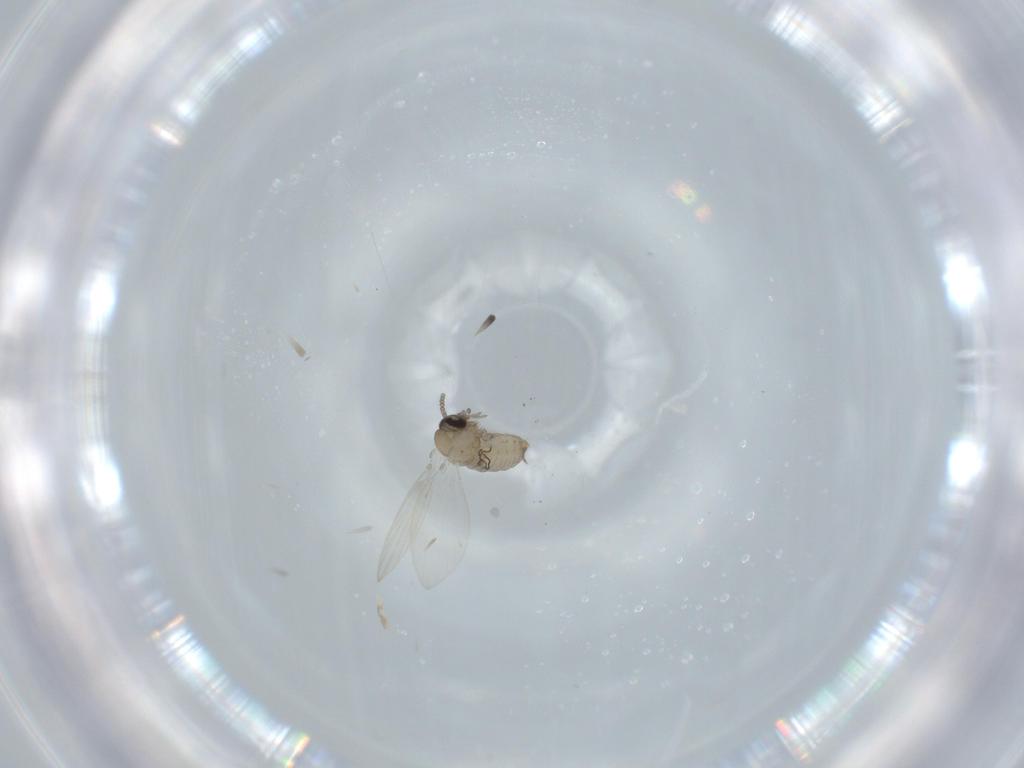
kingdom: Animalia
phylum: Arthropoda
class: Insecta
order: Diptera
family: Psychodidae
